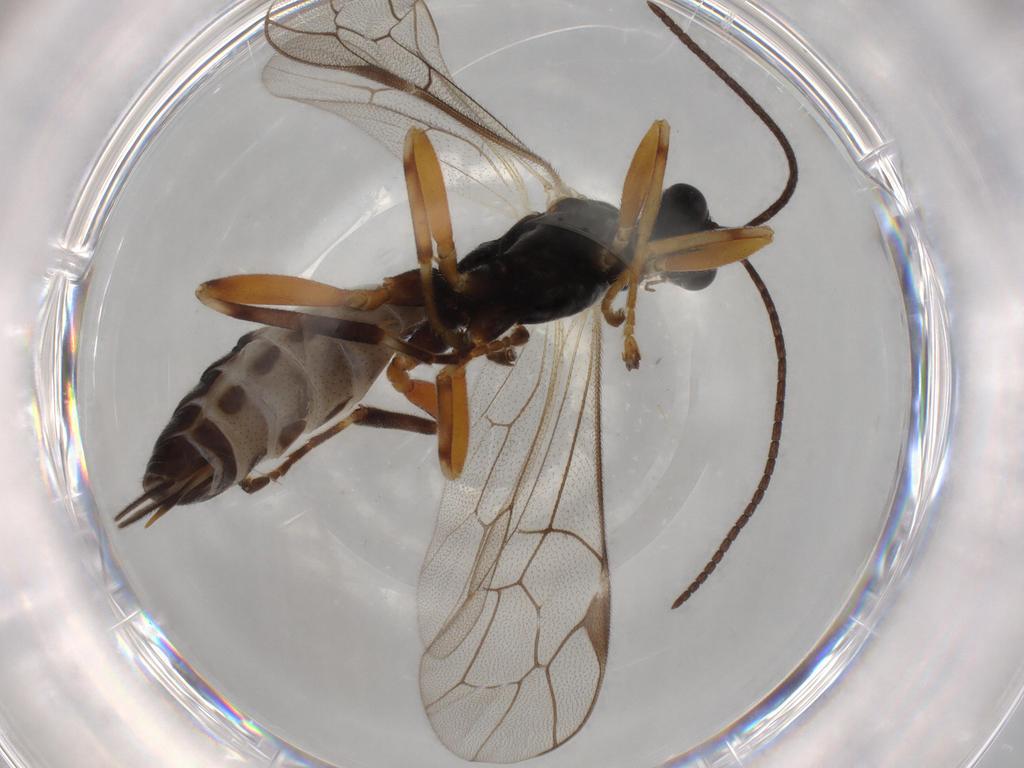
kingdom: Animalia
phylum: Arthropoda
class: Insecta
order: Hymenoptera
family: Ichneumonidae
